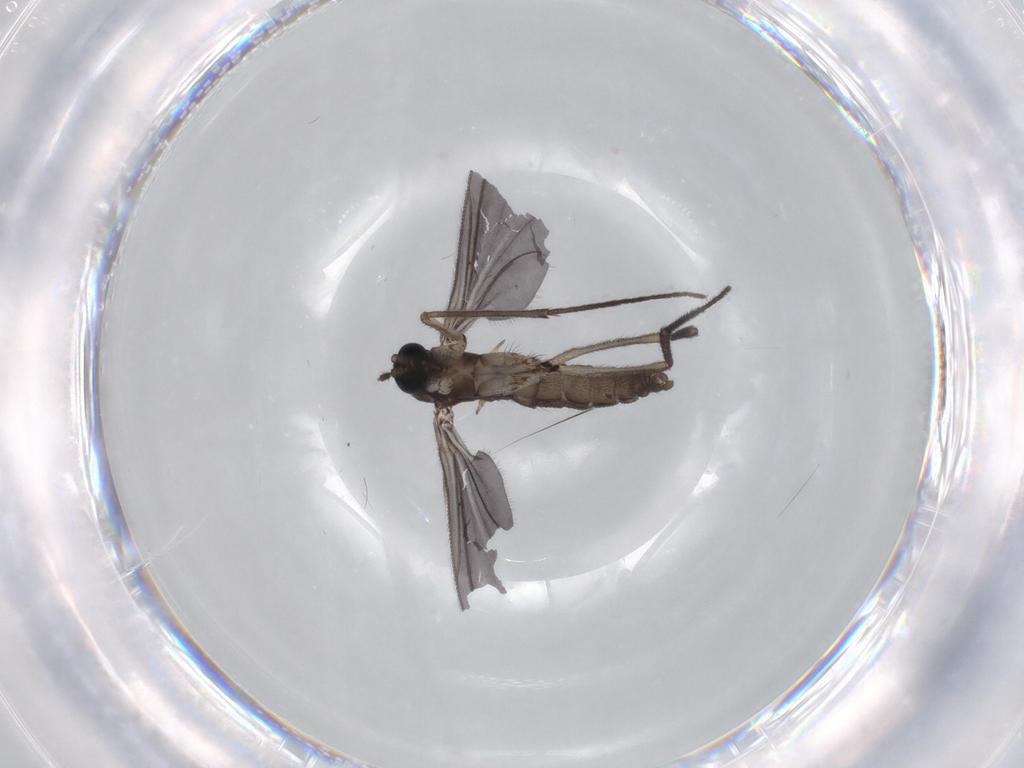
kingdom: Animalia
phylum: Arthropoda
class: Insecta
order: Diptera
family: Sciaridae
